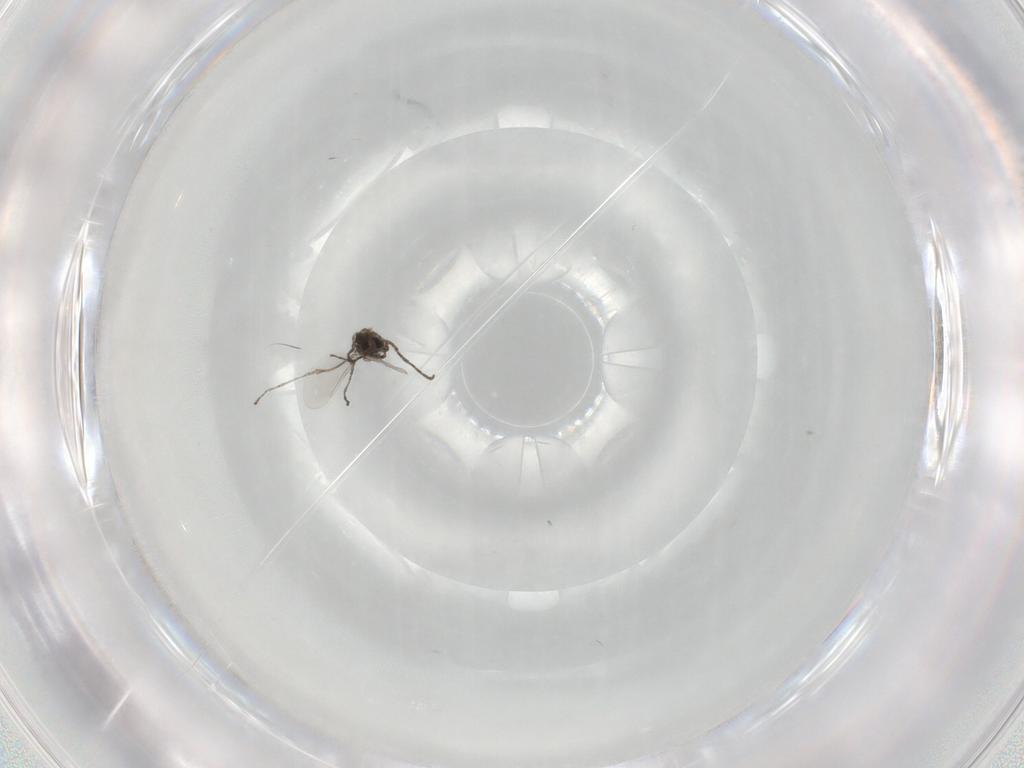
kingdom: Animalia
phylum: Arthropoda
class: Insecta
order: Diptera
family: Cecidomyiidae
